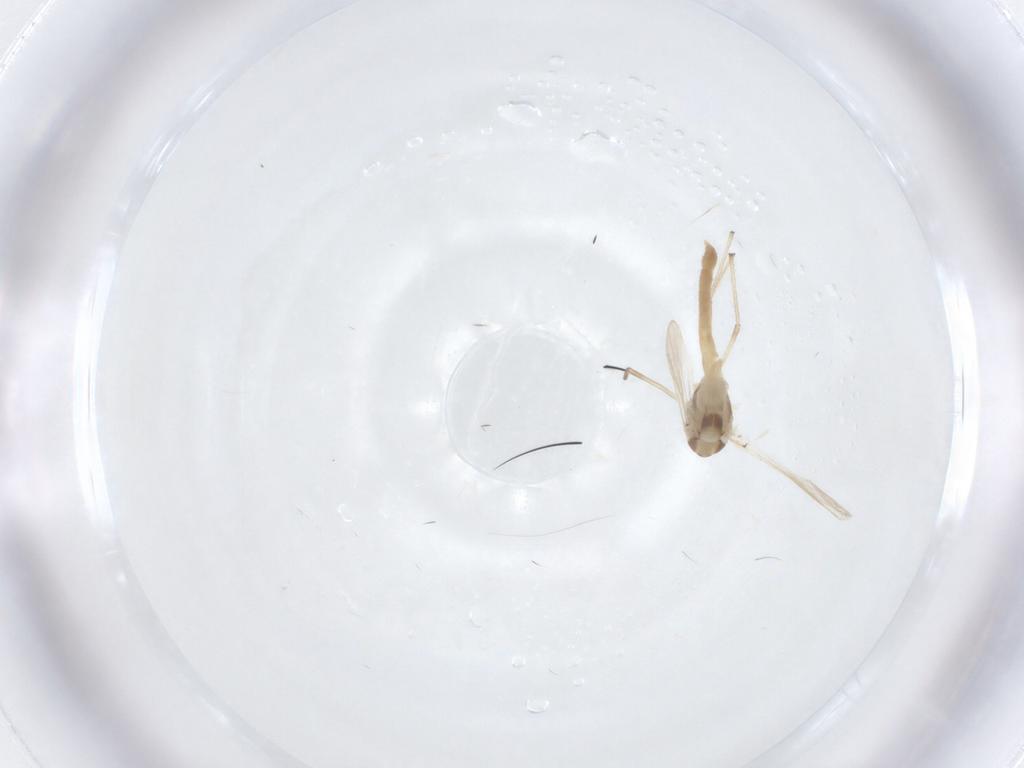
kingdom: Animalia
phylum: Arthropoda
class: Insecta
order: Diptera
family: Chironomidae
